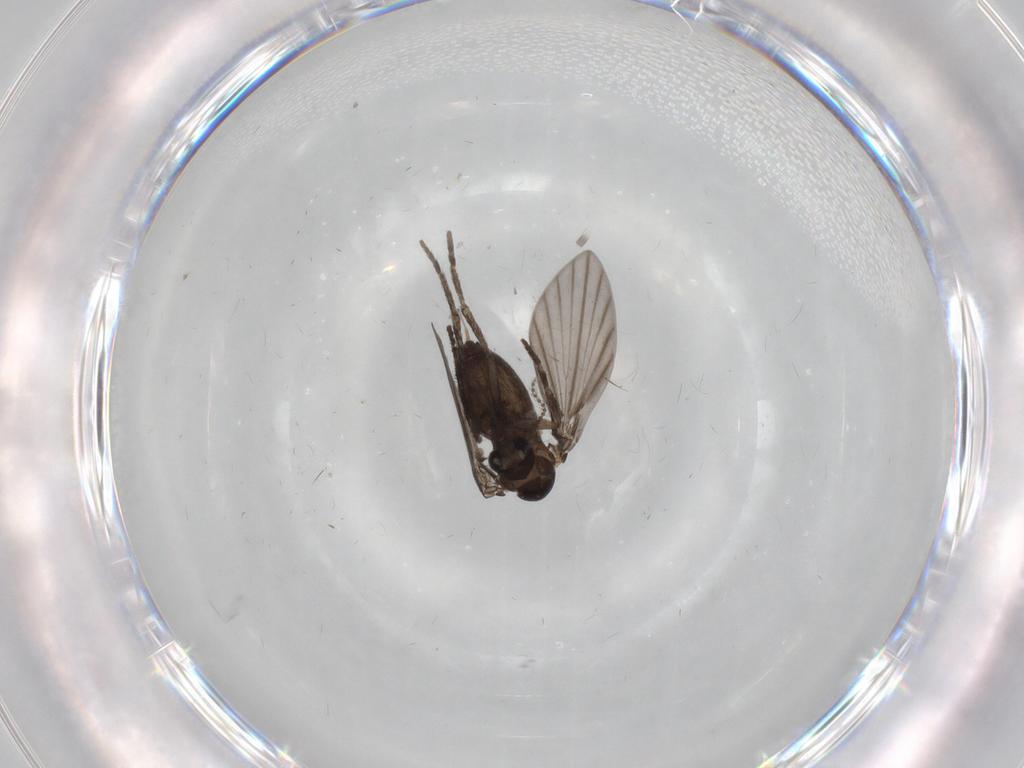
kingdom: Animalia
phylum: Arthropoda
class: Insecta
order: Diptera
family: Psychodidae
